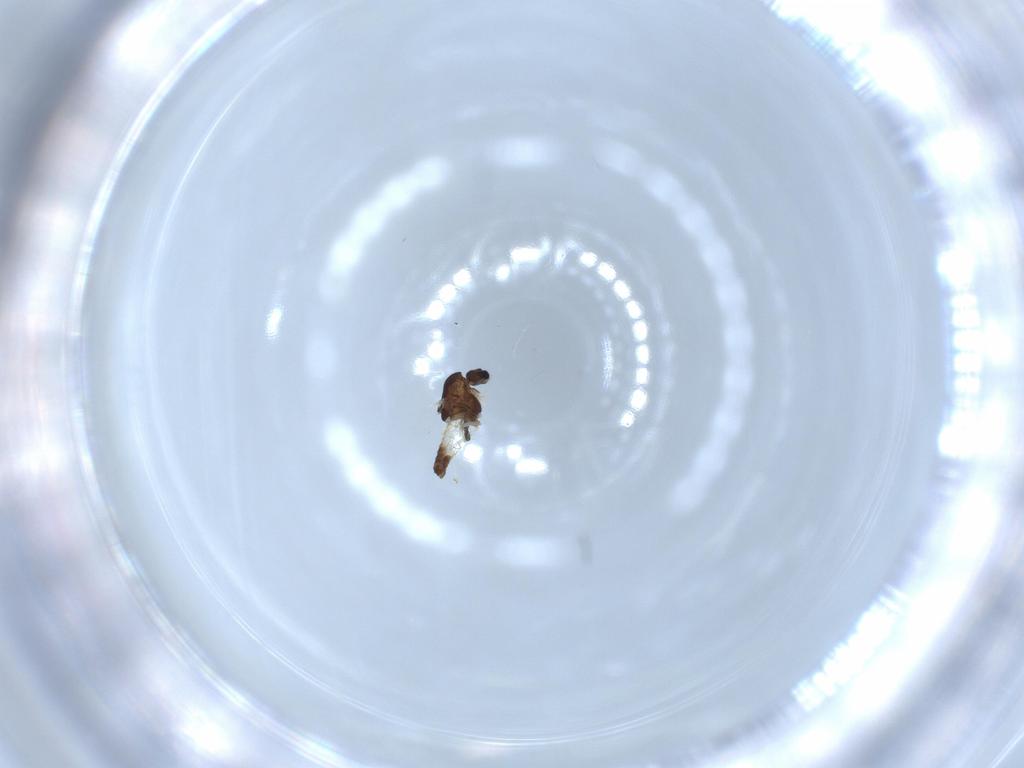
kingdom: Animalia
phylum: Arthropoda
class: Insecta
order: Diptera
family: Chironomidae
